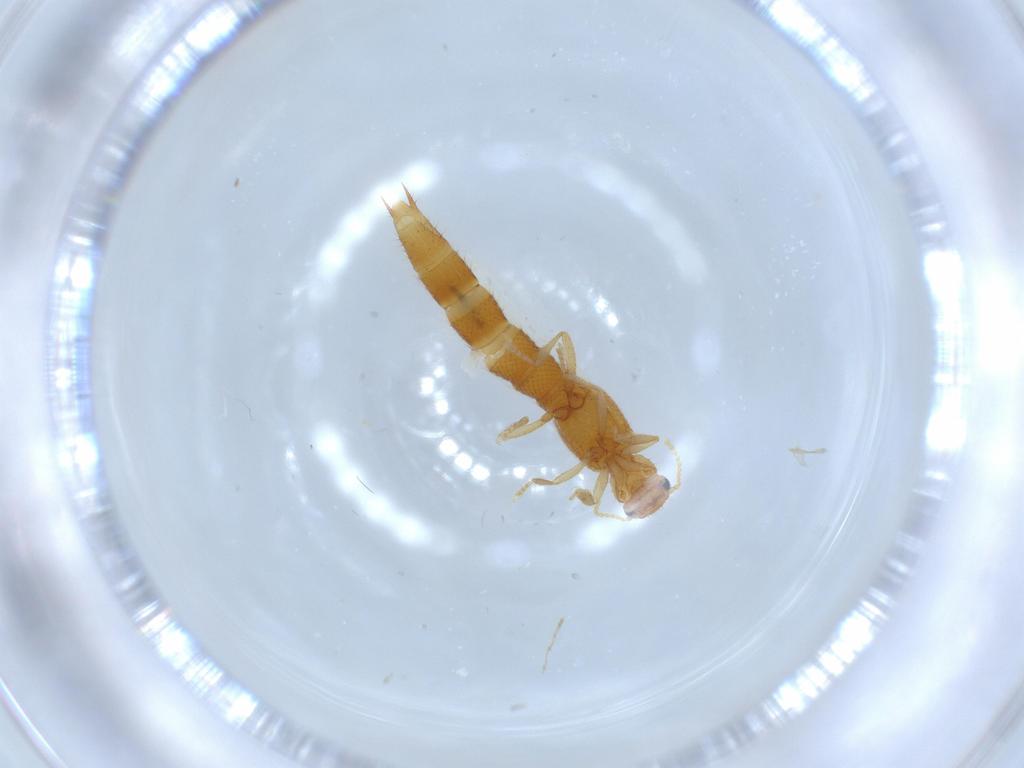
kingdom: Animalia
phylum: Arthropoda
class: Insecta
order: Coleoptera
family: Staphylinidae
